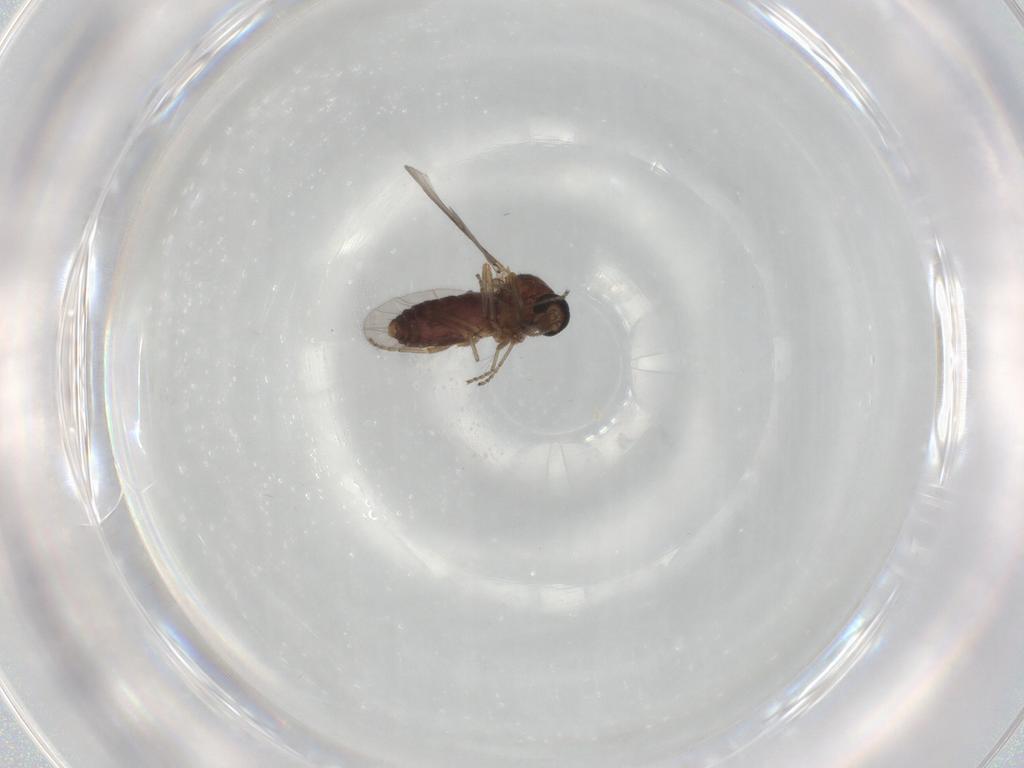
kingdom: Animalia
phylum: Arthropoda
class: Insecta
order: Diptera
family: Ceratopogonidae
